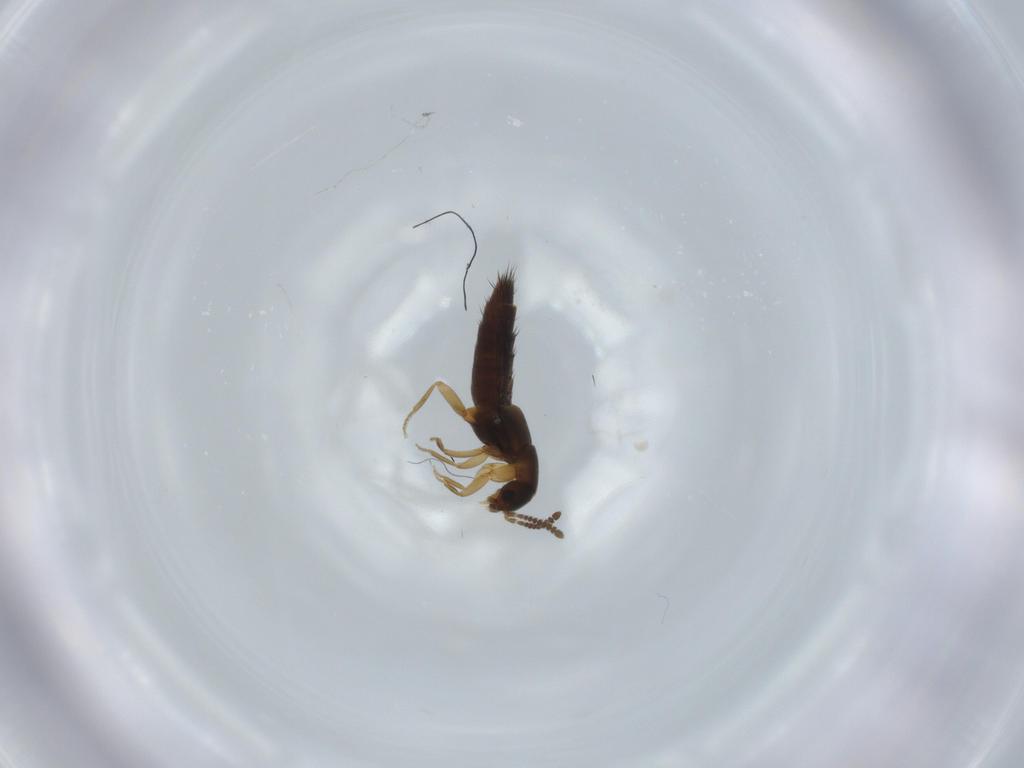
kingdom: Animalia
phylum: Arthropoda
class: Insecta
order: Coleoptera
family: Staphylinidae
